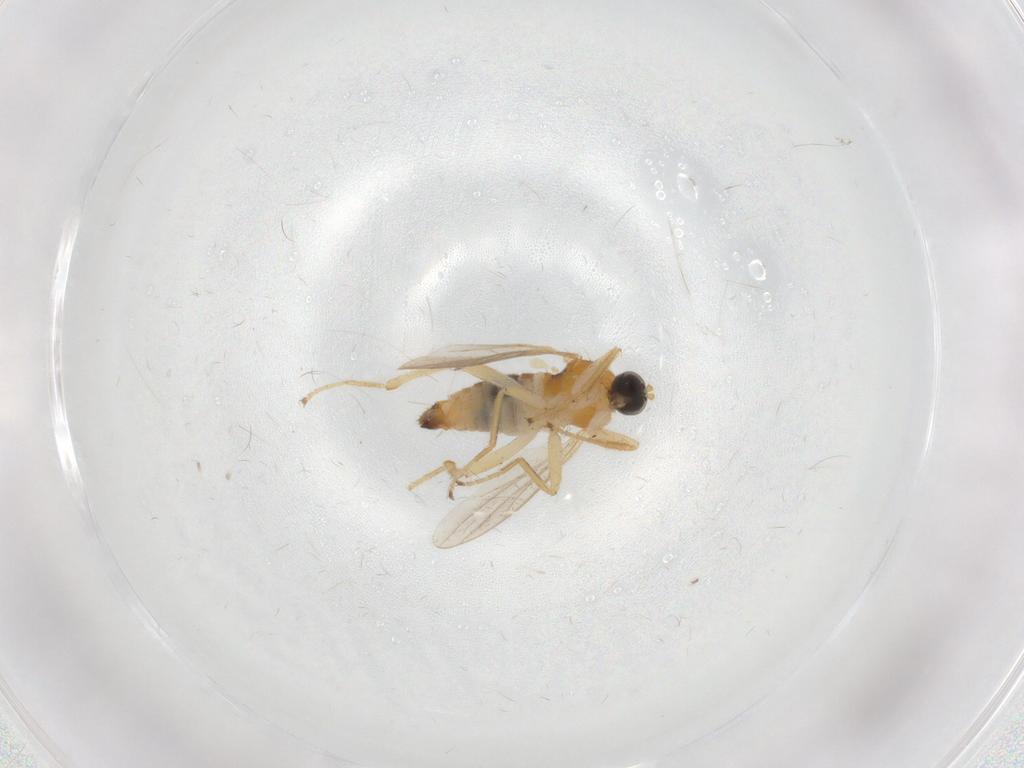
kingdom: Animalia
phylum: Arthropoda
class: Insecta
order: Diptera
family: Hybotidae
